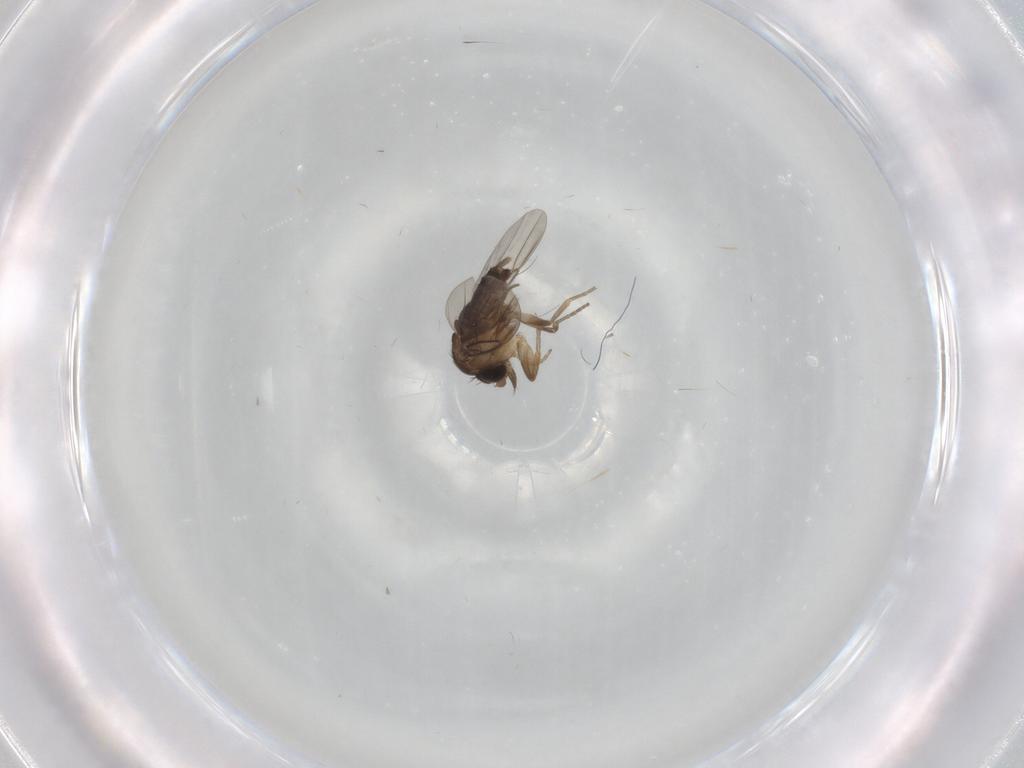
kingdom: Animalia
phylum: Arthropoda
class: Insecta
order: Diptera
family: Phoridae
